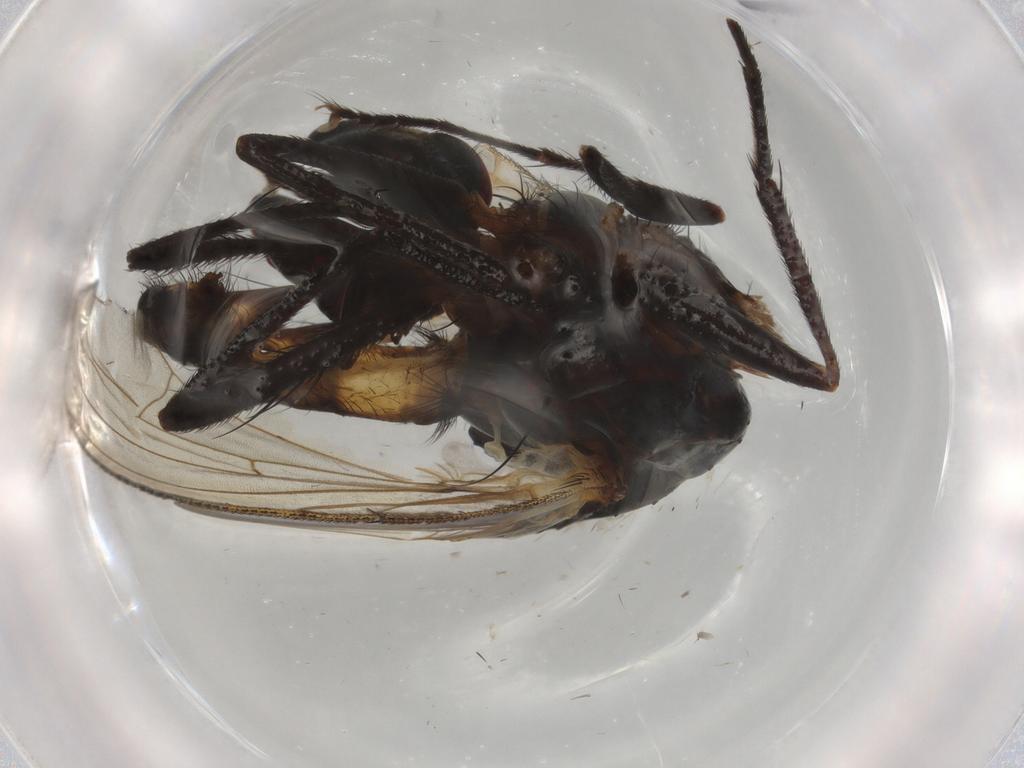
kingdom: Animalia
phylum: Arthropoda
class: Insecta
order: Diptera
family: Anthomyiidae
